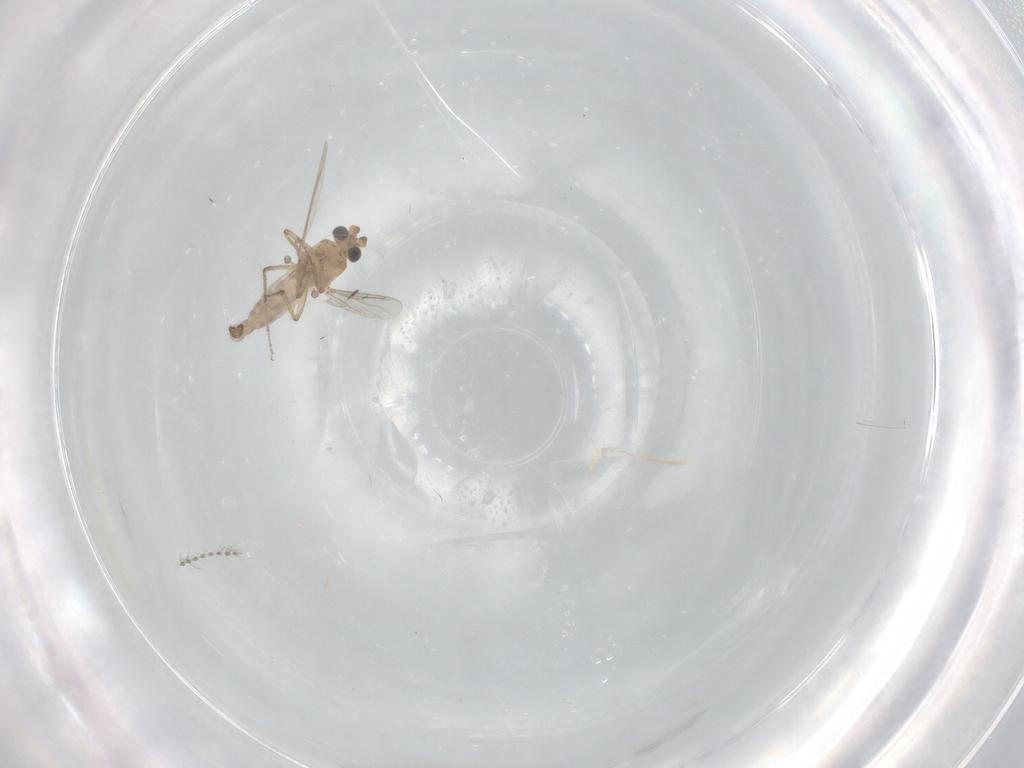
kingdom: Animalia
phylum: Arthropoda
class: Insecta
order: Diptera
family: Psychodidae
